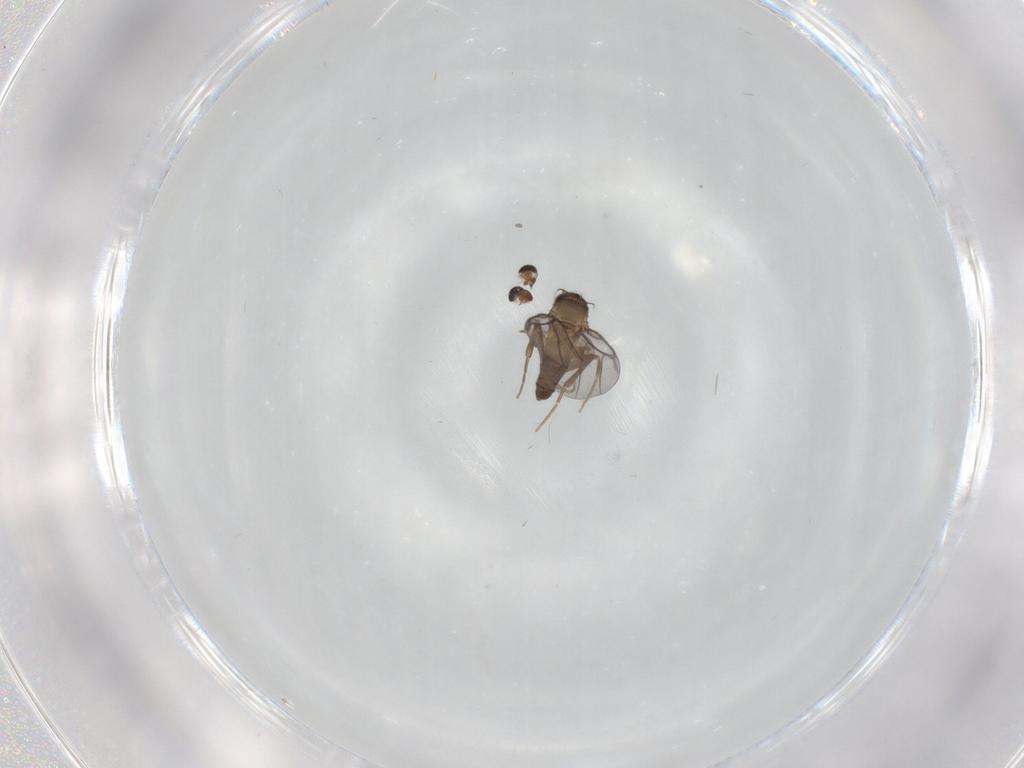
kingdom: Animalia
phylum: Arthropoda
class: Insecta
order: Diptera
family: Chironomidae
